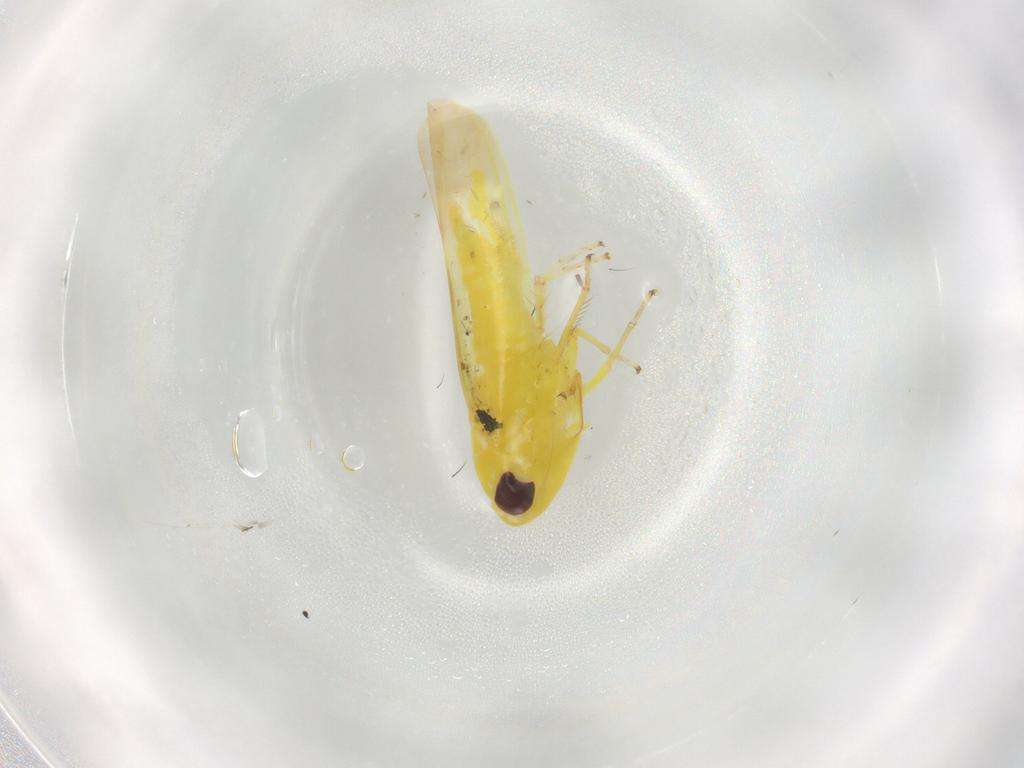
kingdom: Animalia
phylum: Arthropoda
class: Insecta
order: Hemiptera
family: Cicadellidae
